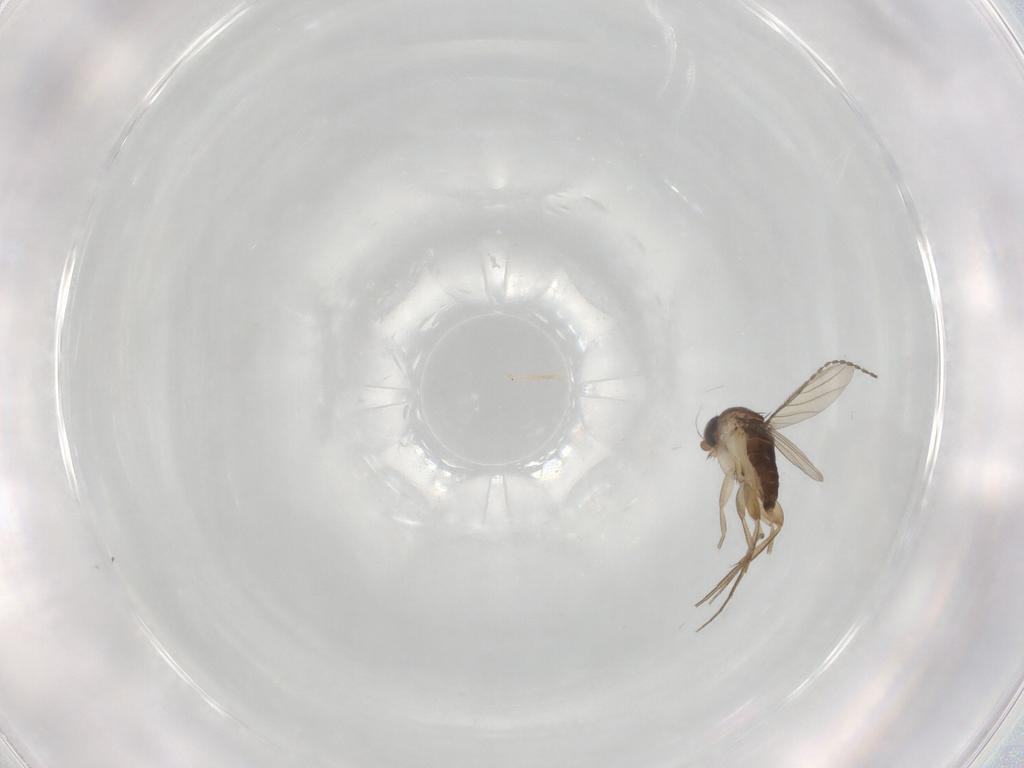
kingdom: Animalia
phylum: Arthropoda
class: Insecta
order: Diptera
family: Phoridae
